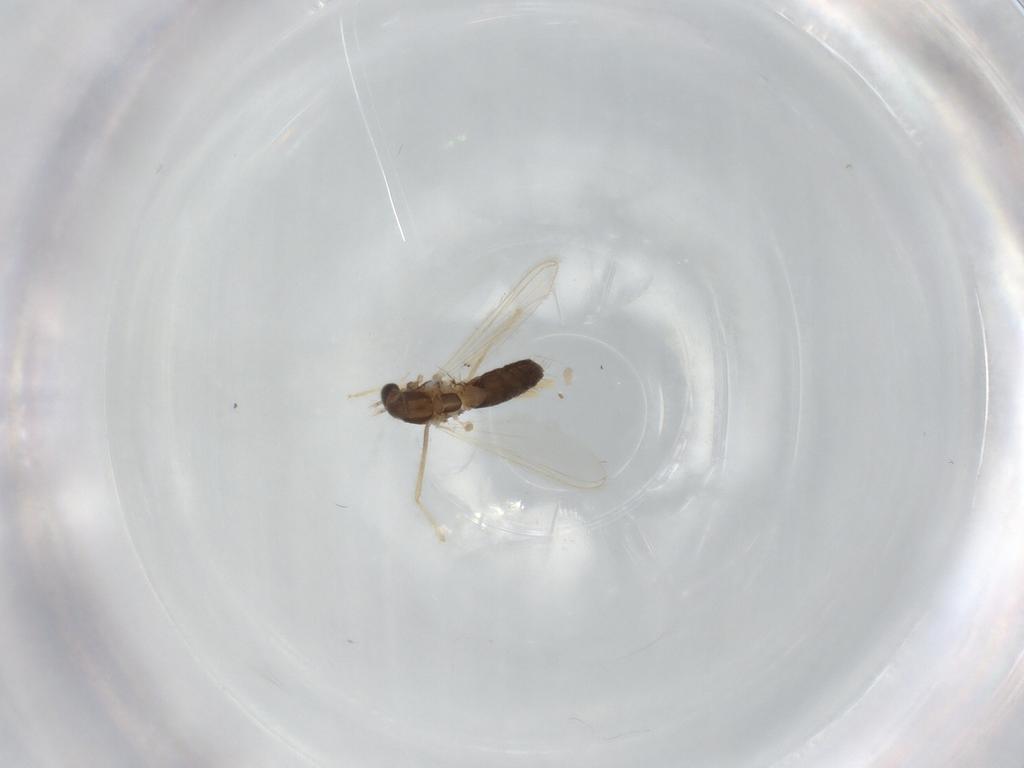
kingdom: Animalia
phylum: Arthropoda
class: Insecta
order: Diptera
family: Chironomidae
